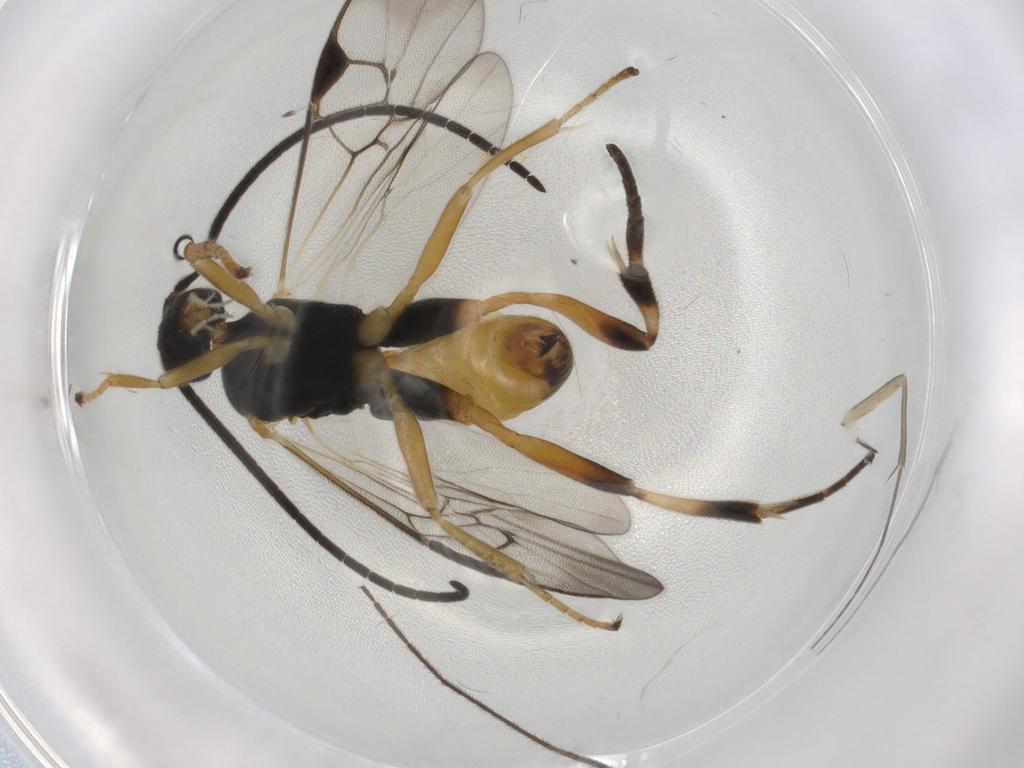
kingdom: Animalia
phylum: Arthropoda
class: Insecta
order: Hymenoptera
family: Braconidae
